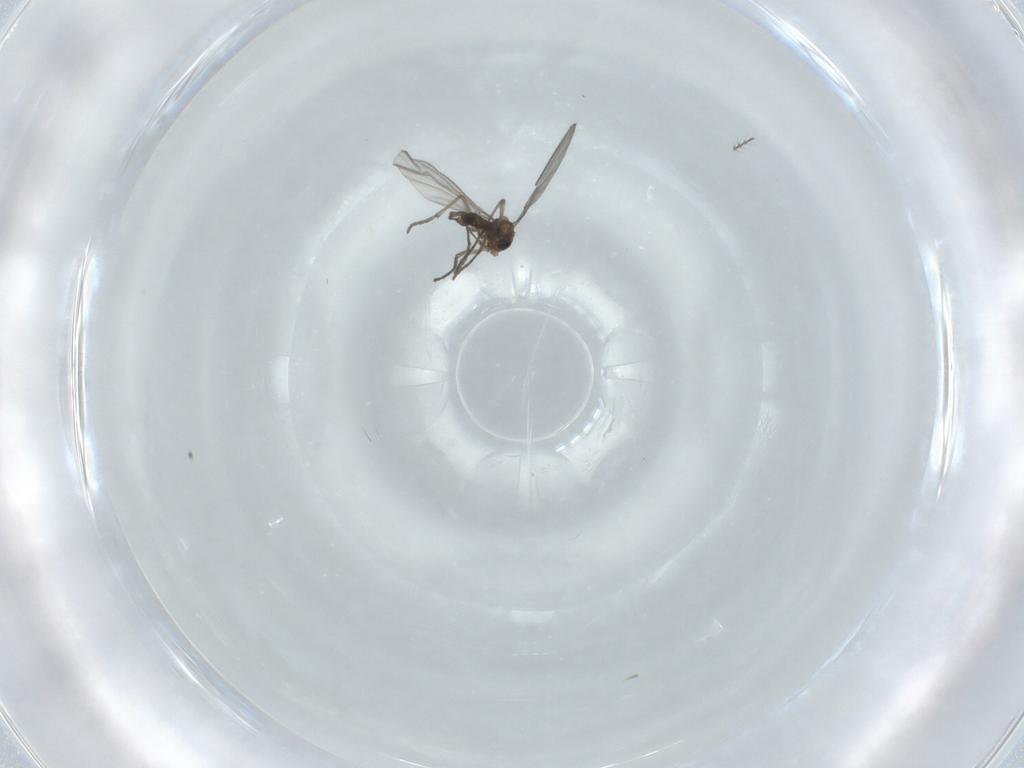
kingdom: Animalia
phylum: Arthropoda
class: Insecta
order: Diptera
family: Sciaridae
